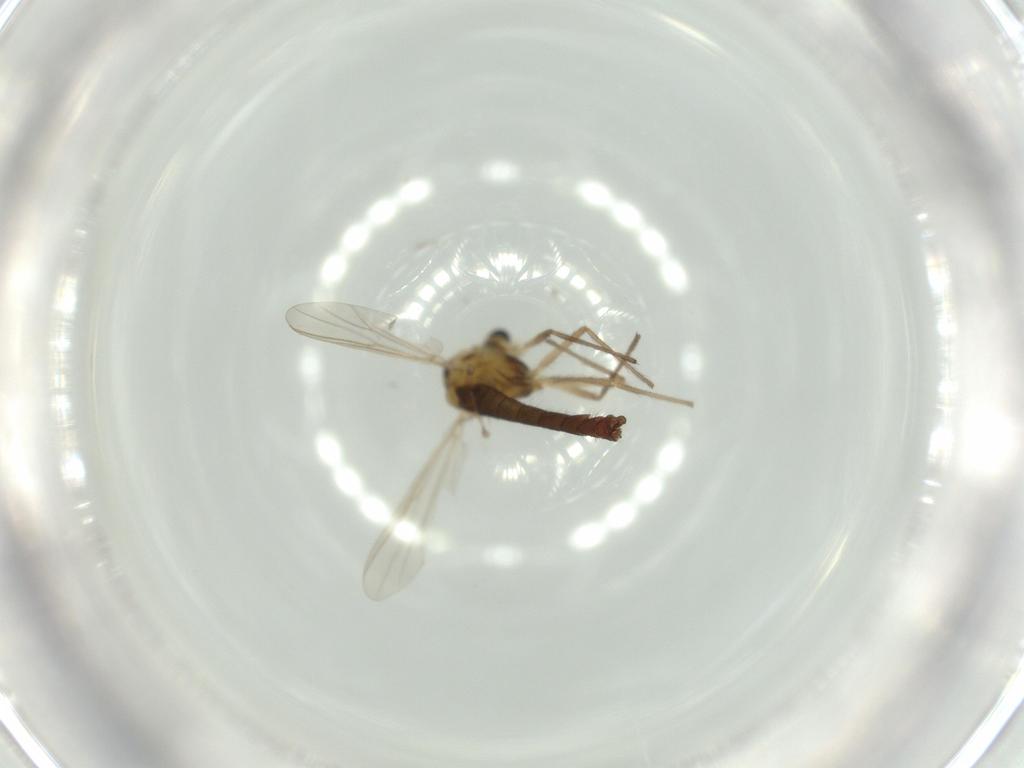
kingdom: Animalia
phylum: Arthropoda
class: Insecta
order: Diptera
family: Chironomidae
